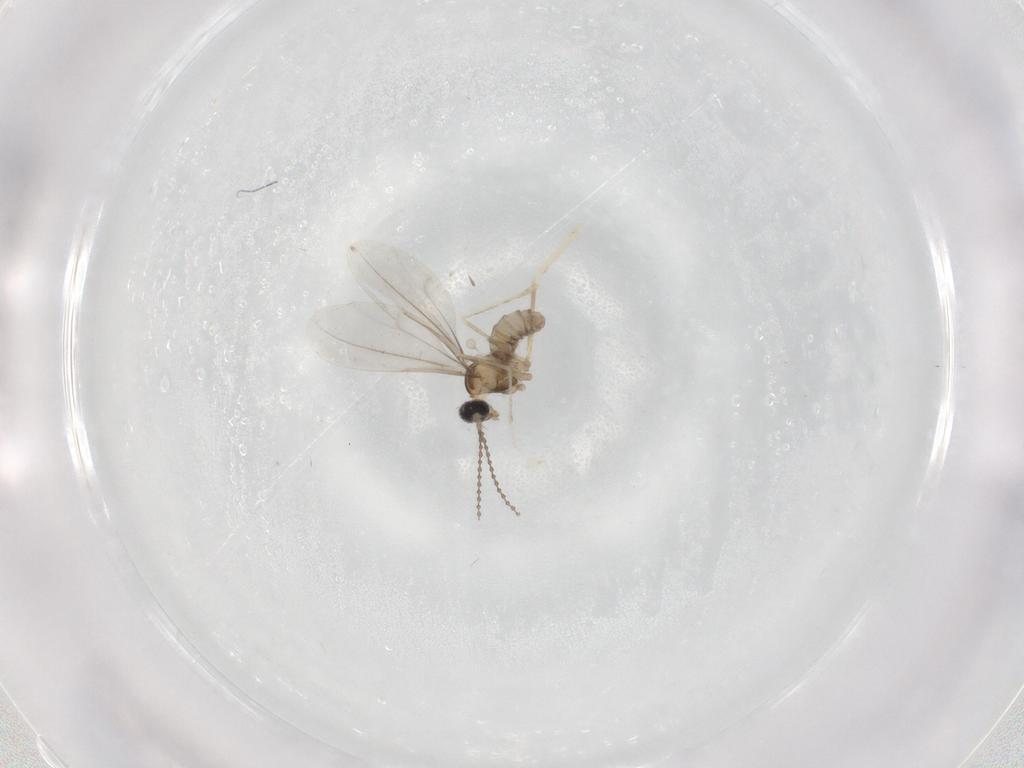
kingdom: Animalia
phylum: Arthropoda
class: Insecta
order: Diptera
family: Cecidomyiidae
